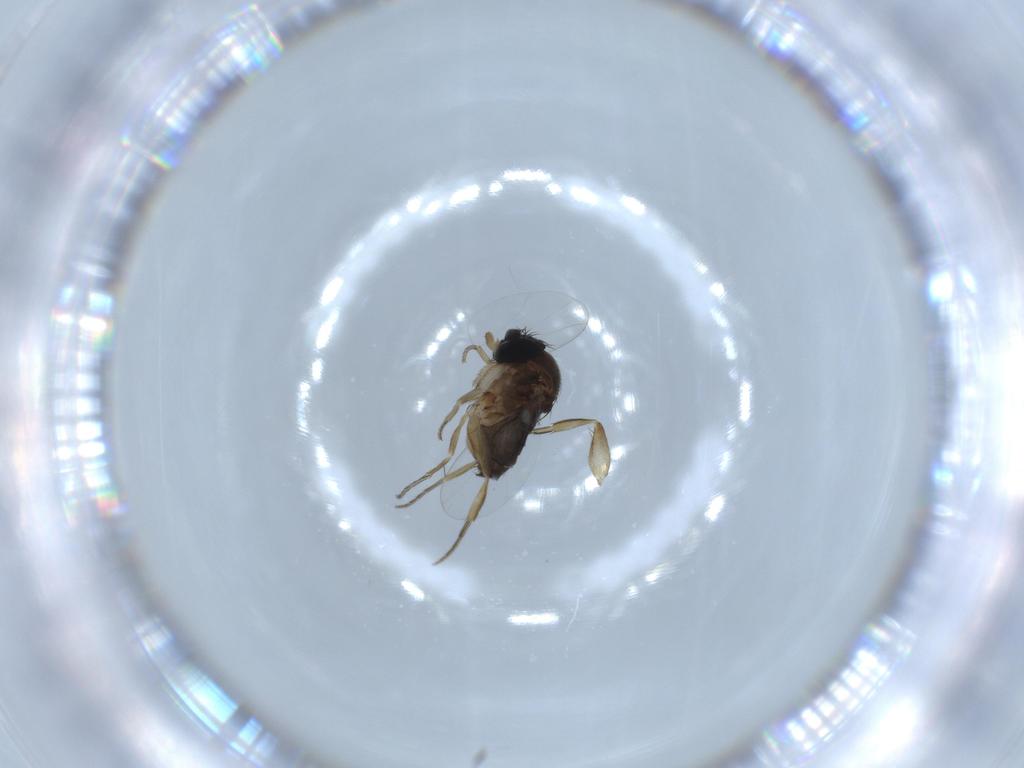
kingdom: Animalia
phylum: Arthropoda
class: Insecta
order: Diptera
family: Phoridae
